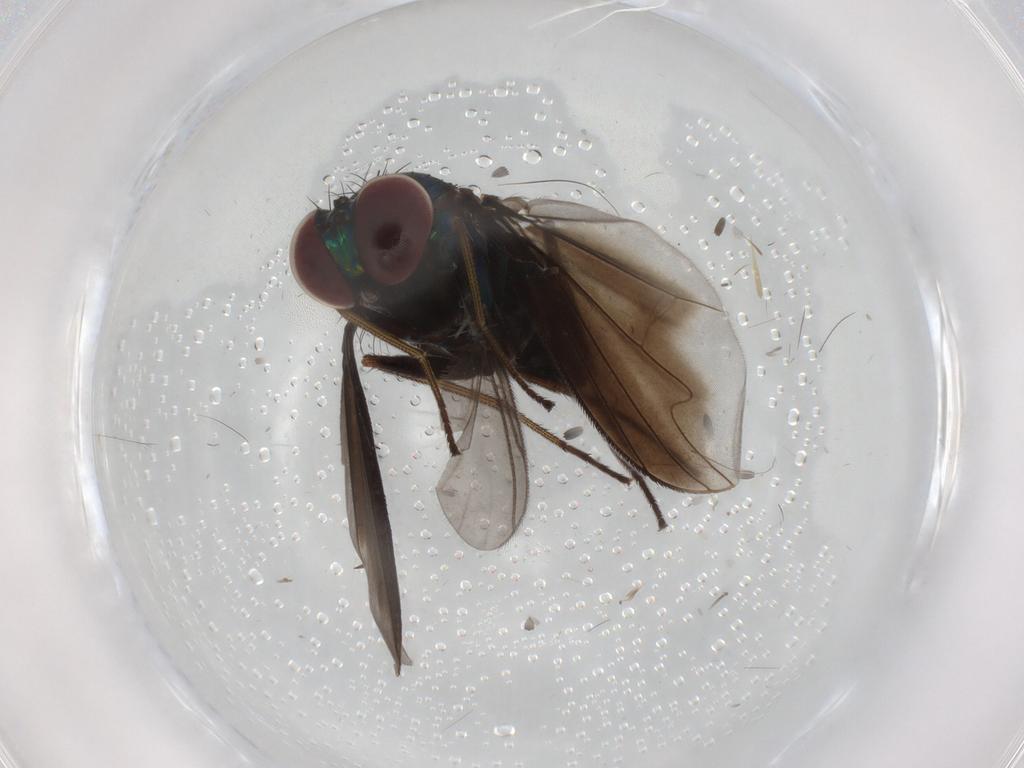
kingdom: Animalia
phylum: Arthropoda
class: Insecta
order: Diptera
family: Dolichopodidae
